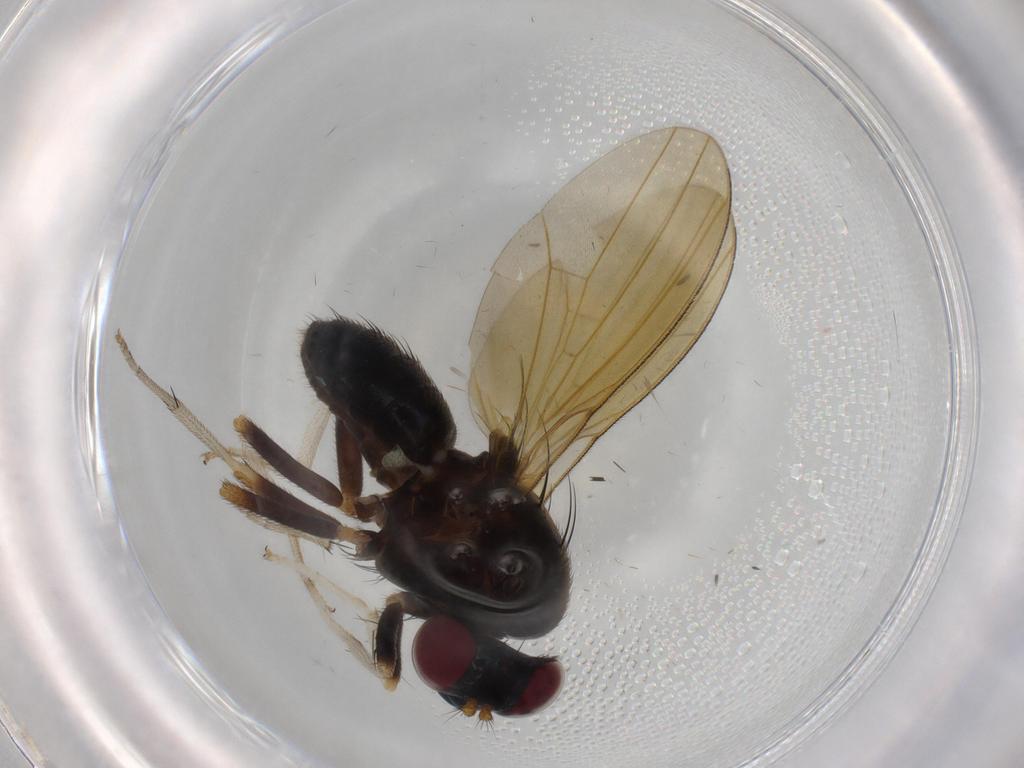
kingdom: Animalia
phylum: Arthropoda
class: Insecta
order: Diptera
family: Lauxaniidae
